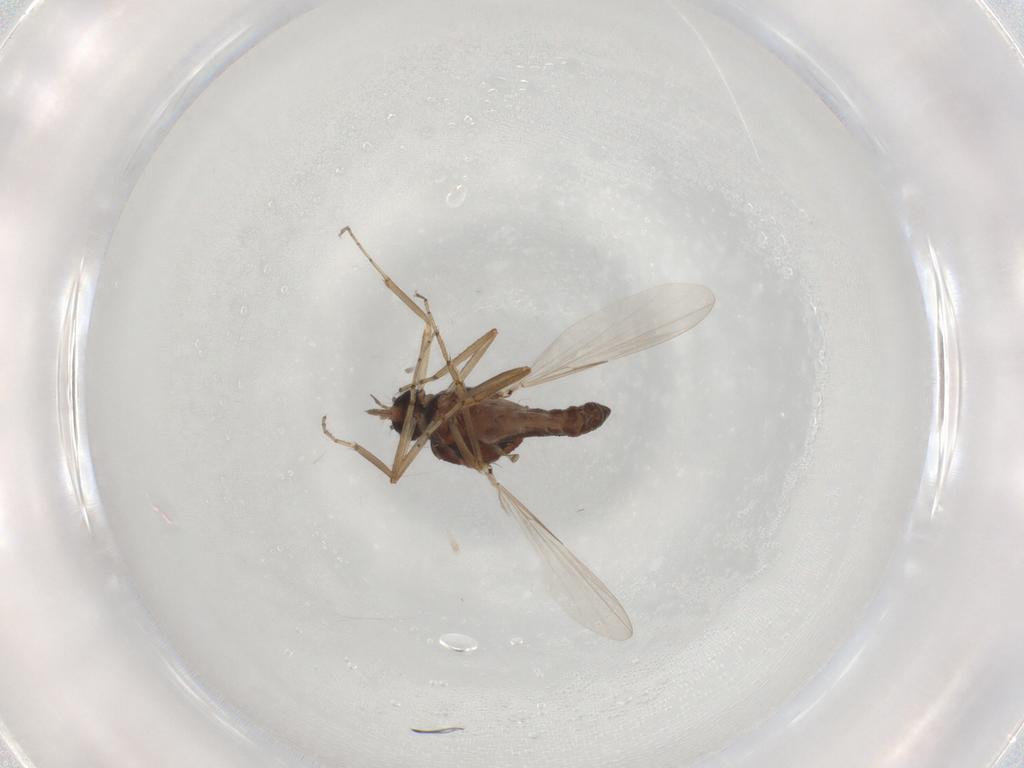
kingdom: Animalia
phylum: Arthropoda
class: Insecta
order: Diptera
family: Ceratopogonidae
